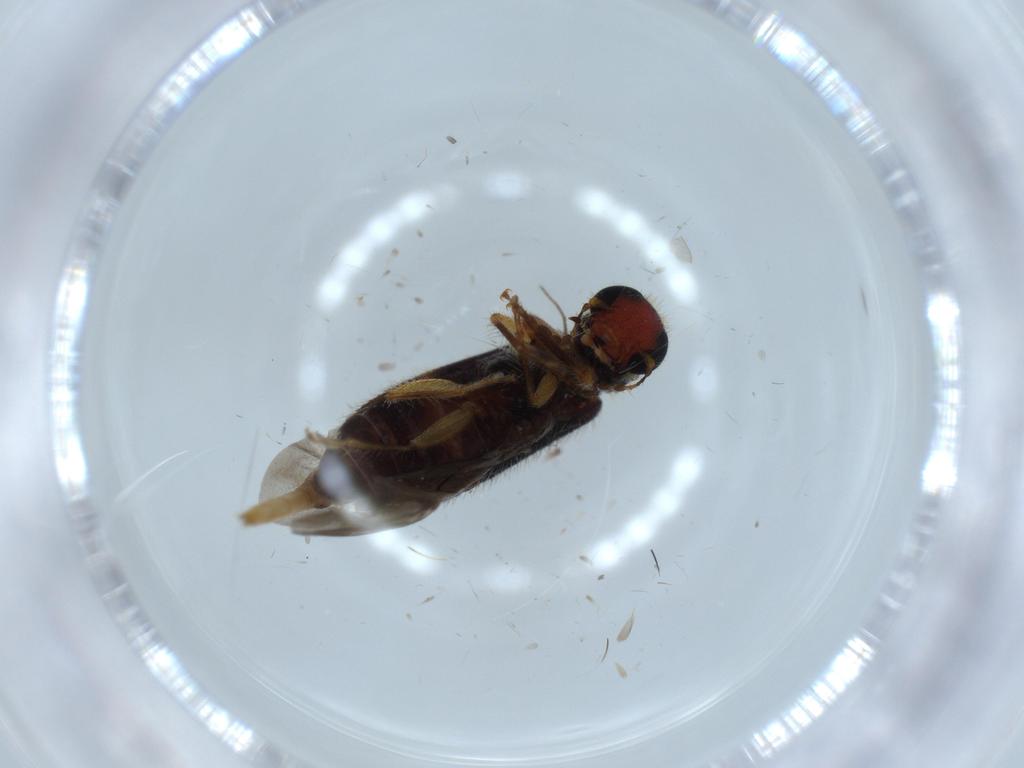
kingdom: Animalia
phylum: Arthropoda
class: Insecta
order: Coleoptera
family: Cleridae
